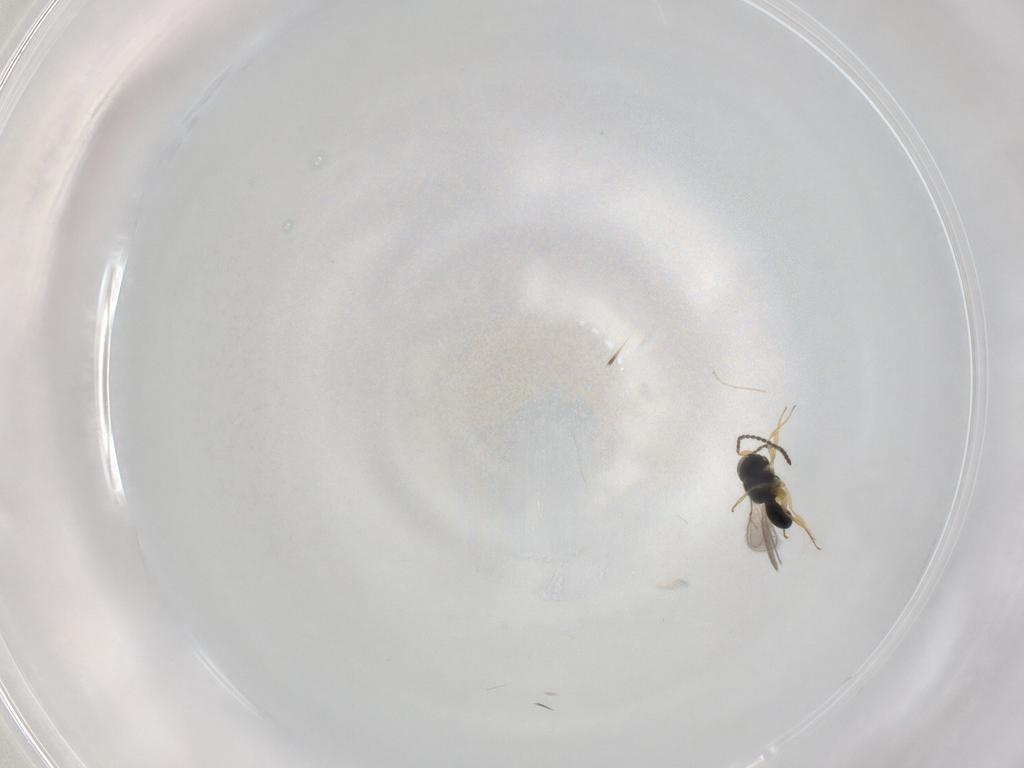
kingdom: Animalia
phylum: Arthropoda
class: Insecta
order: Hymenoptera
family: Scelionidae
